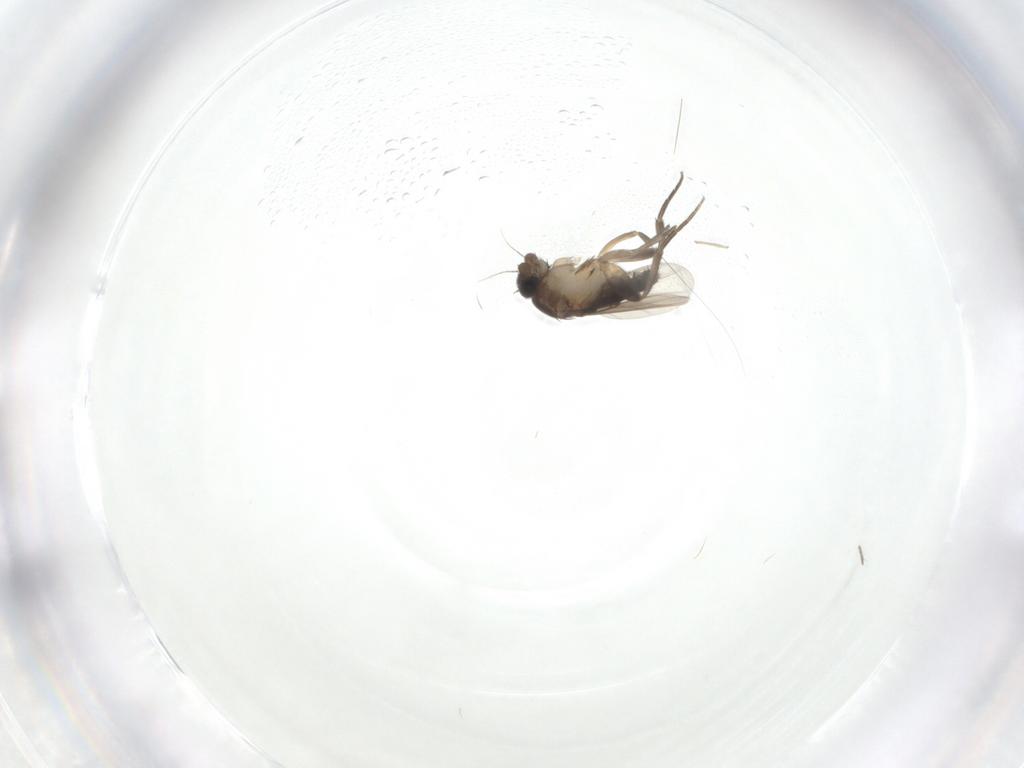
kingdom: Animalia
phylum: Arthropoda
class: Insecta
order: Diptera
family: Phoridae
